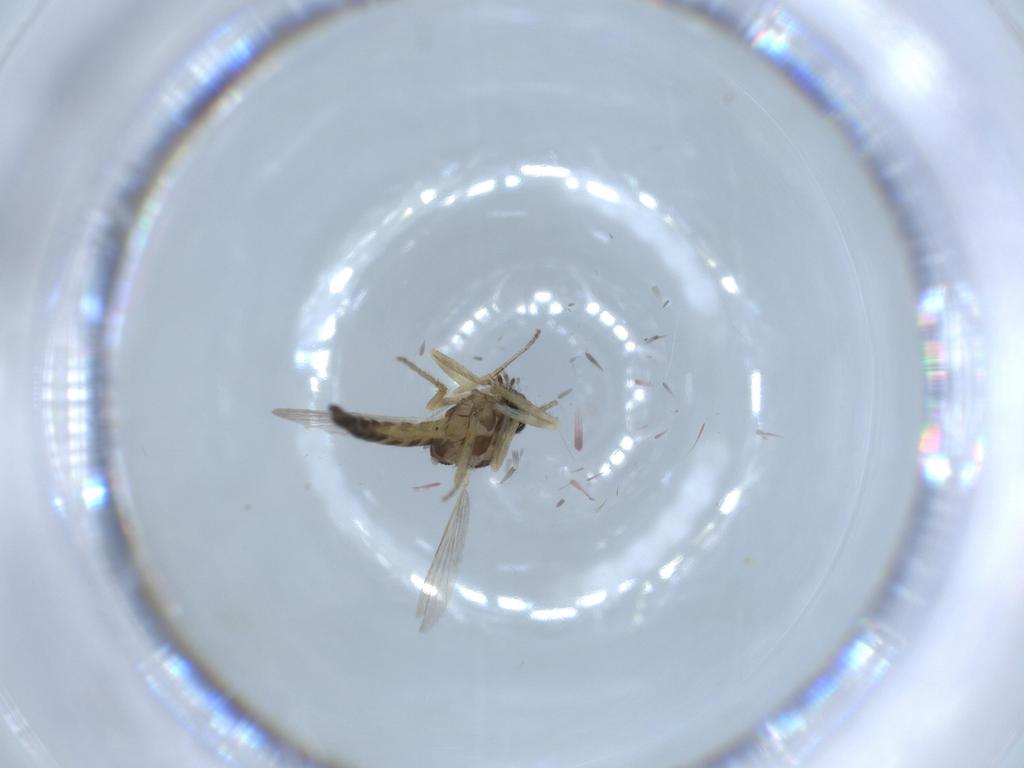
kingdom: Animalia
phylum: Arthropoda
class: Insecta
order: Diptera
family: Ceratopogonidae
